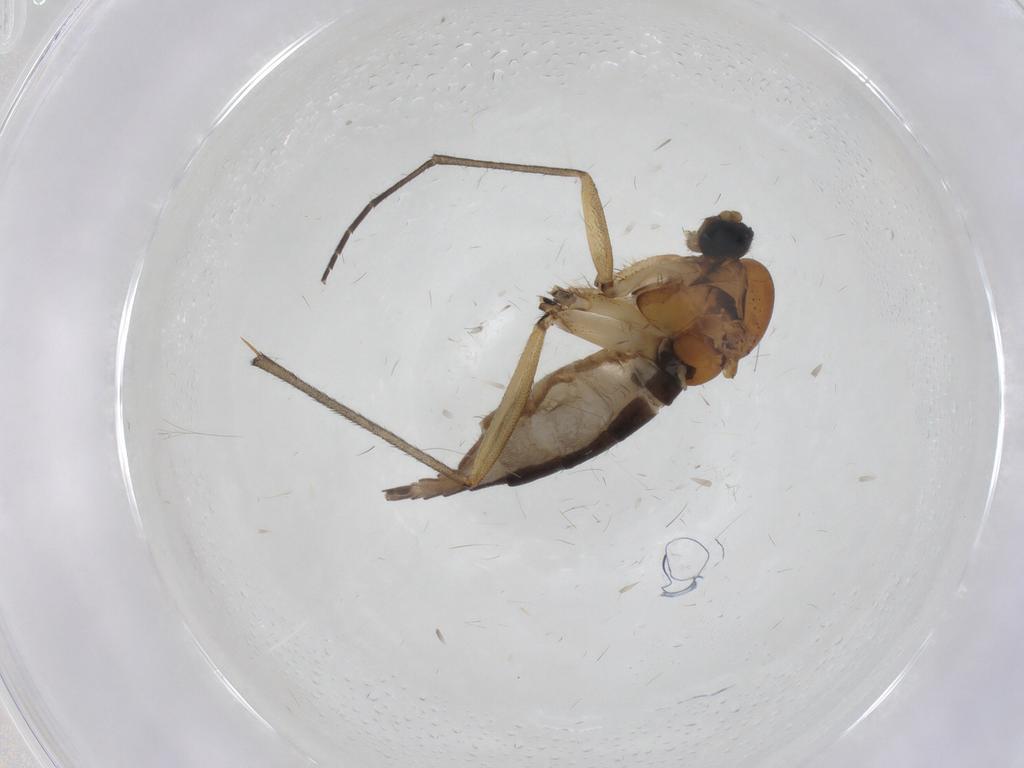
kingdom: Animalia
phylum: Arthropoda
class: Insecta
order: Diptera
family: Sciaridae
